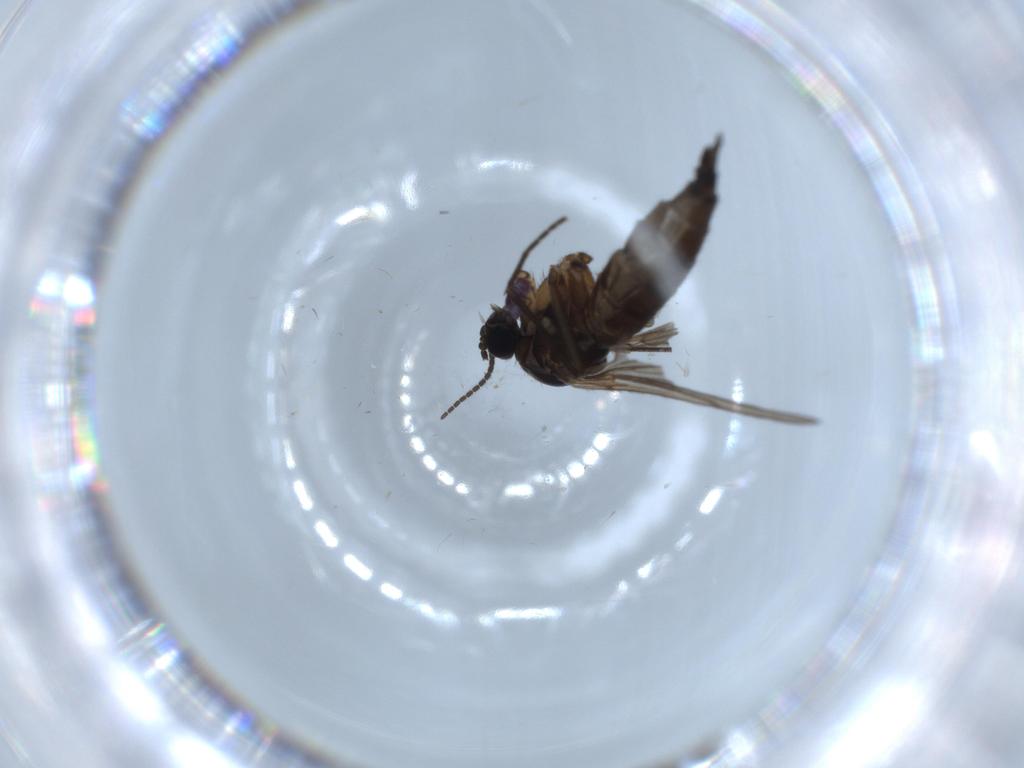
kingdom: Animalia
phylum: Arthropoda
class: Insecta
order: Diptera
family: Sciaridae
